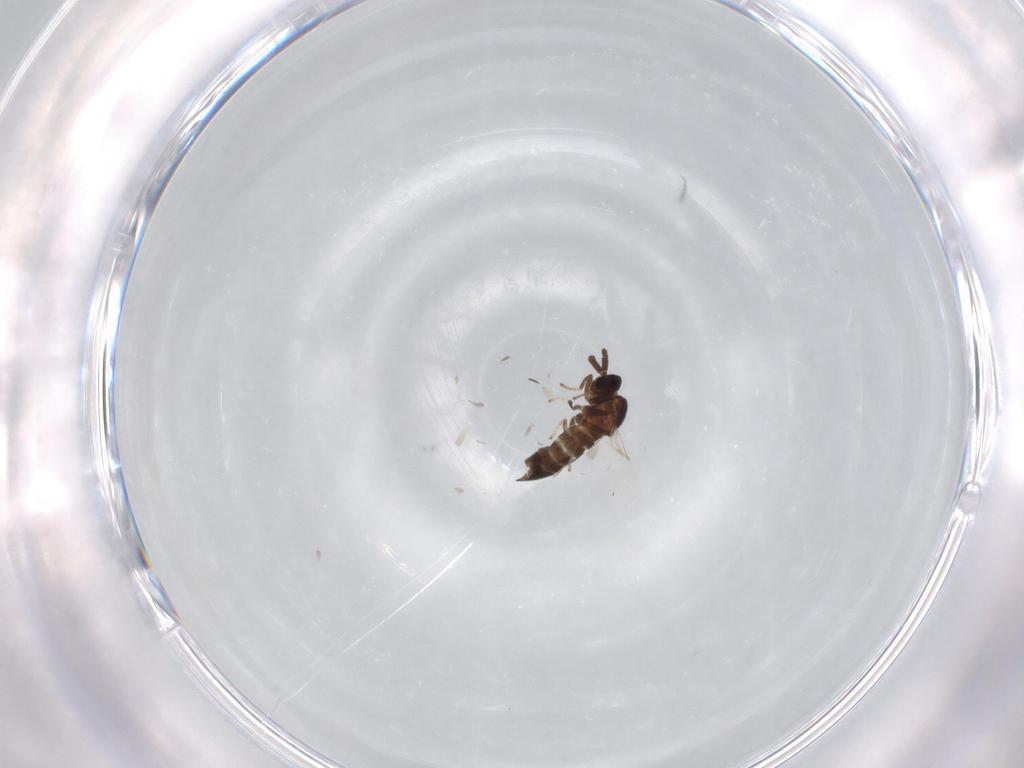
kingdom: Animalia
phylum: Arthropoda
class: Insecta
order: Diptera
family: Scatopsidae
